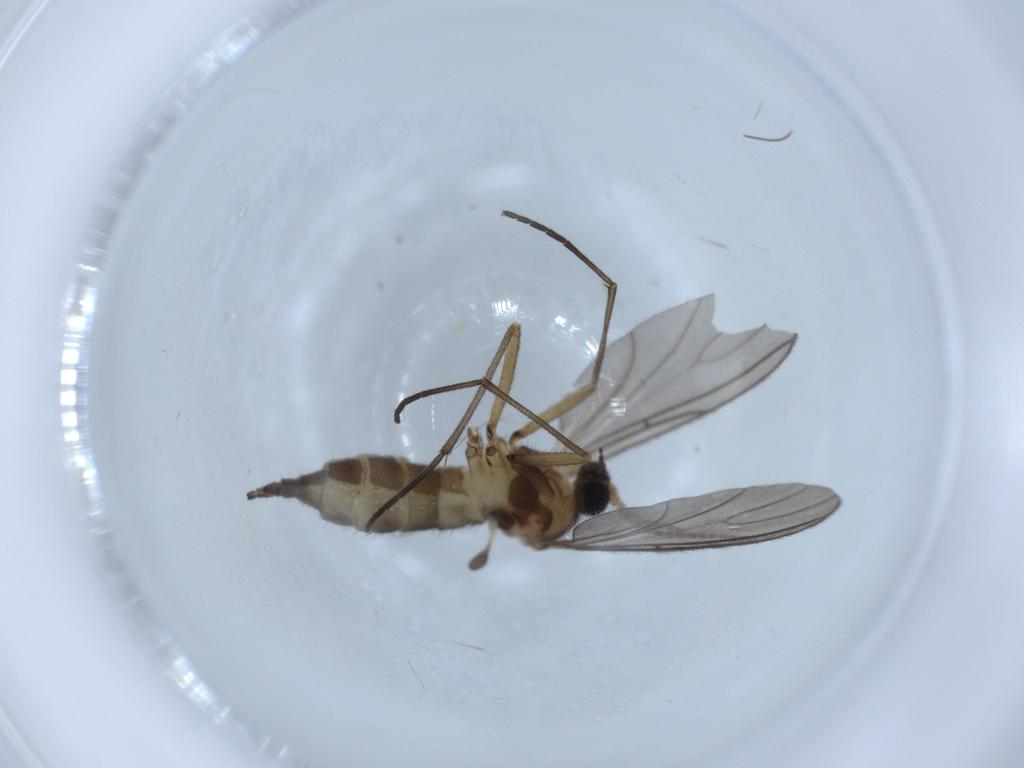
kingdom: Animalia
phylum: Arthropoda
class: Insecta
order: Diptera
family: Sciaridae
